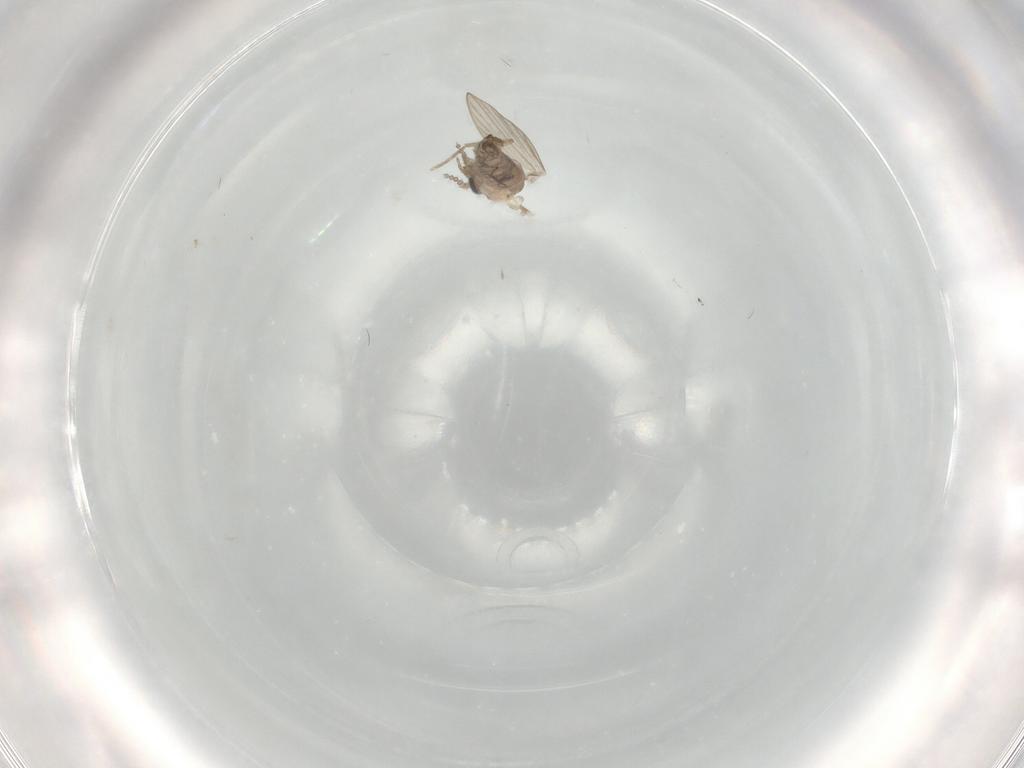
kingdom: Animalia
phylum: Arthropoda
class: Insecta
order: Diptera
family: Psychodidae
